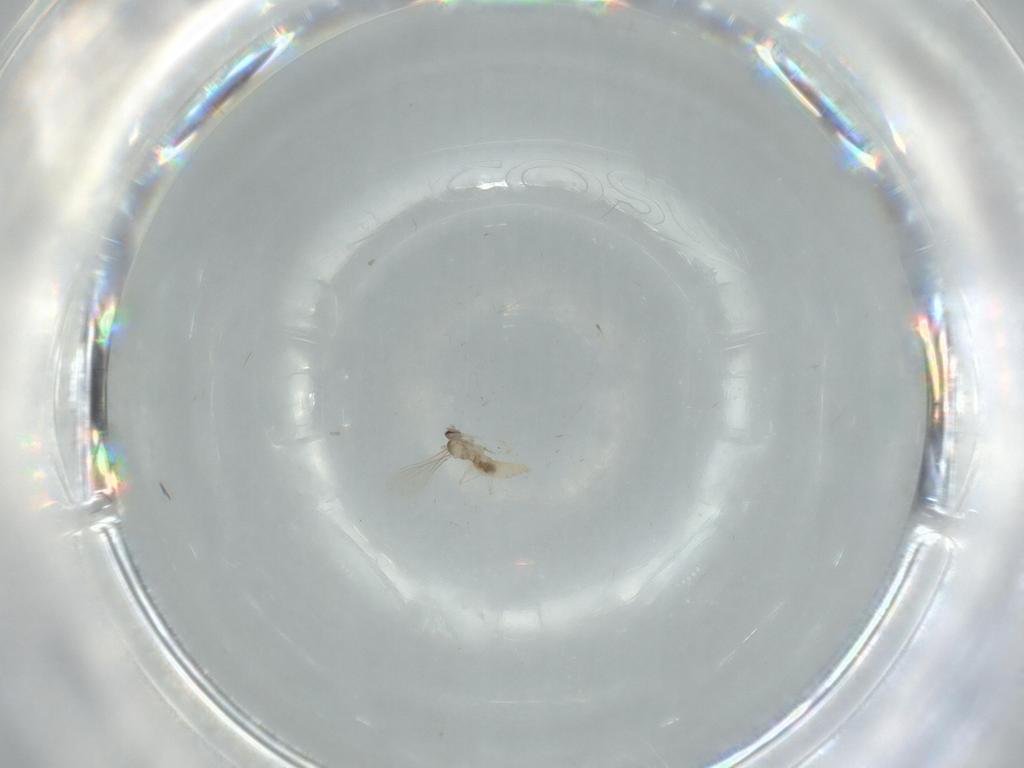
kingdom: Animalia
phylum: Arthropoda
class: Insecta
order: Diptera
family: Cecidomyiidae
